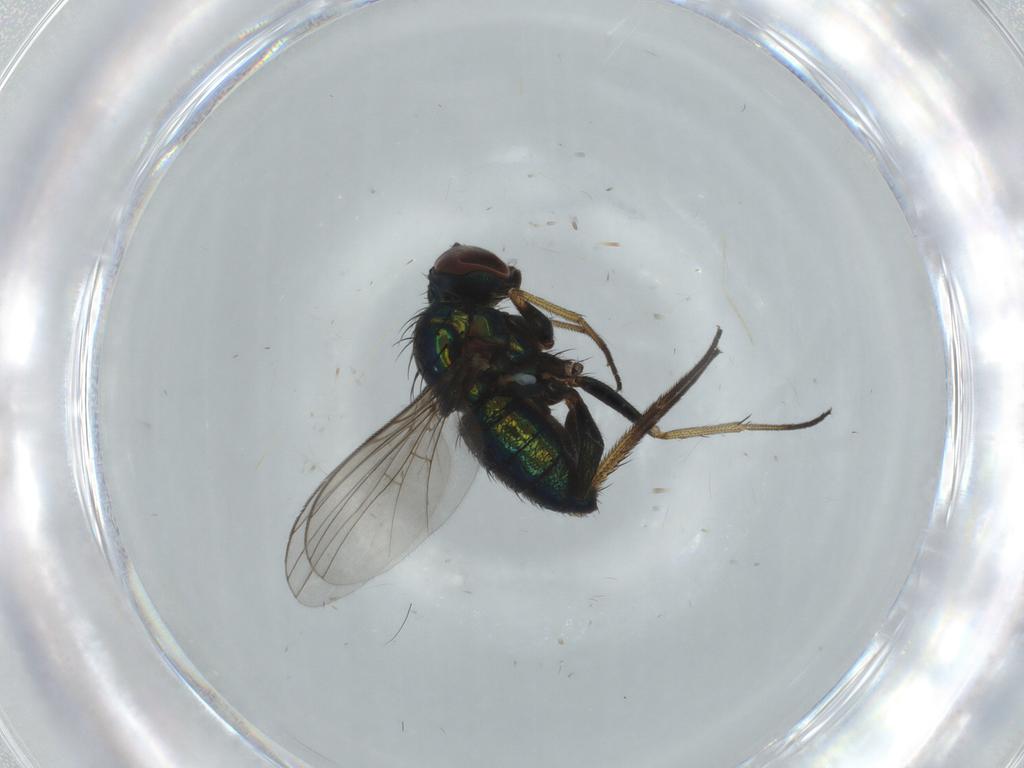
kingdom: Animalia
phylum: Arthropoda
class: Insecta
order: Diptera
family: Dolichopodidae
